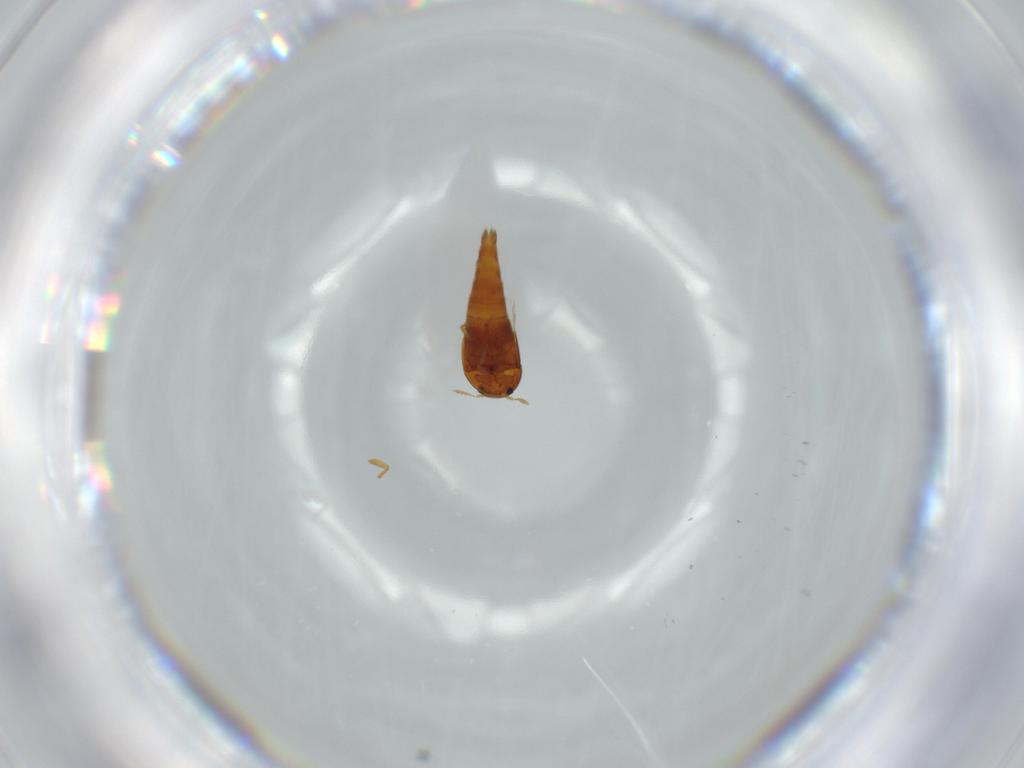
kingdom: Animalia
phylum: Arthropoda
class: Insecta
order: Coleoptera
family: Staphylinidae
